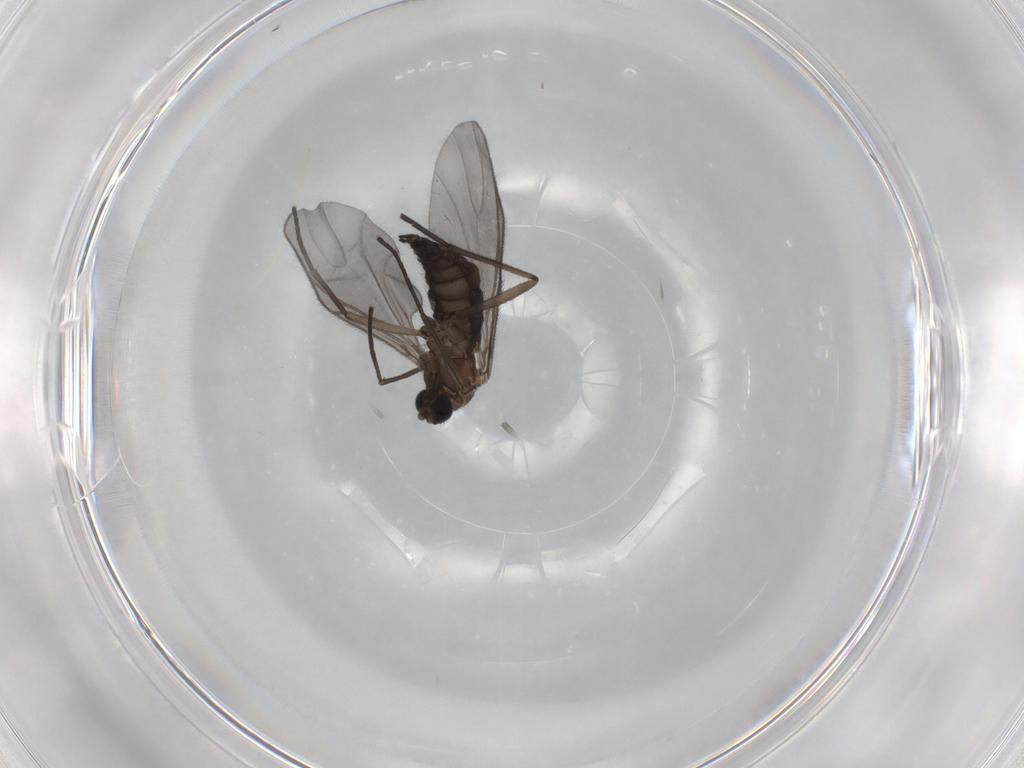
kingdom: Animalia
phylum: Arthropoda
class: Insecta
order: Diptera
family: Sciaridae
